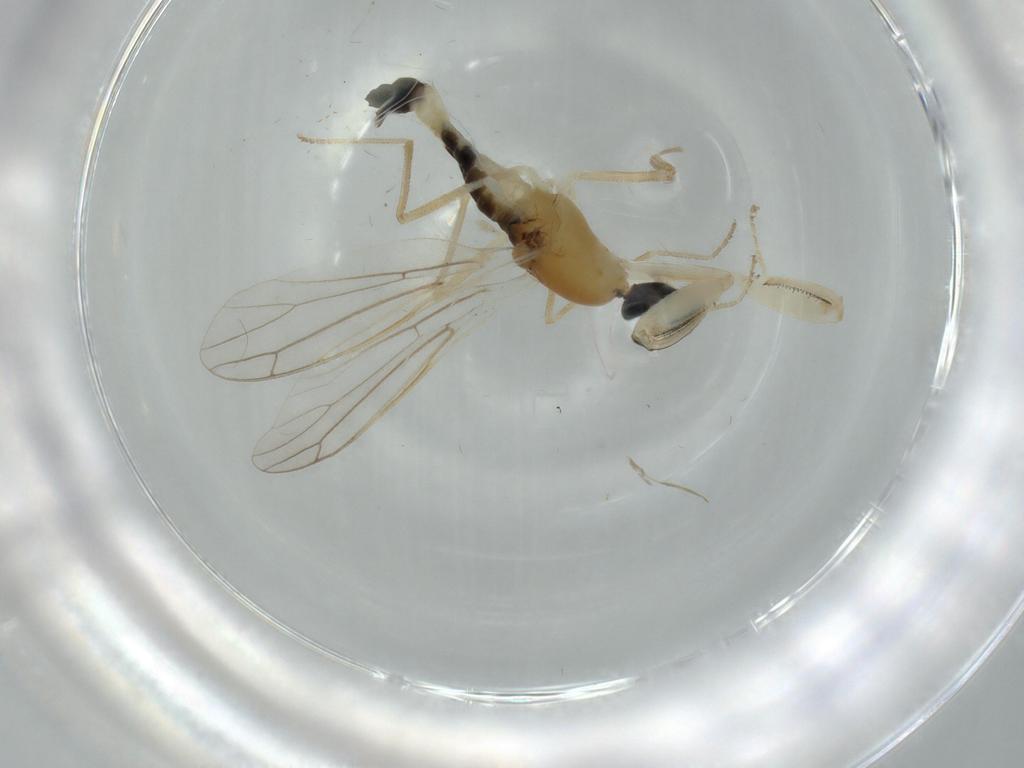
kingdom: Animalia
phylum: Arthropoda
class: Insecta
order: Diptera
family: Empididae
